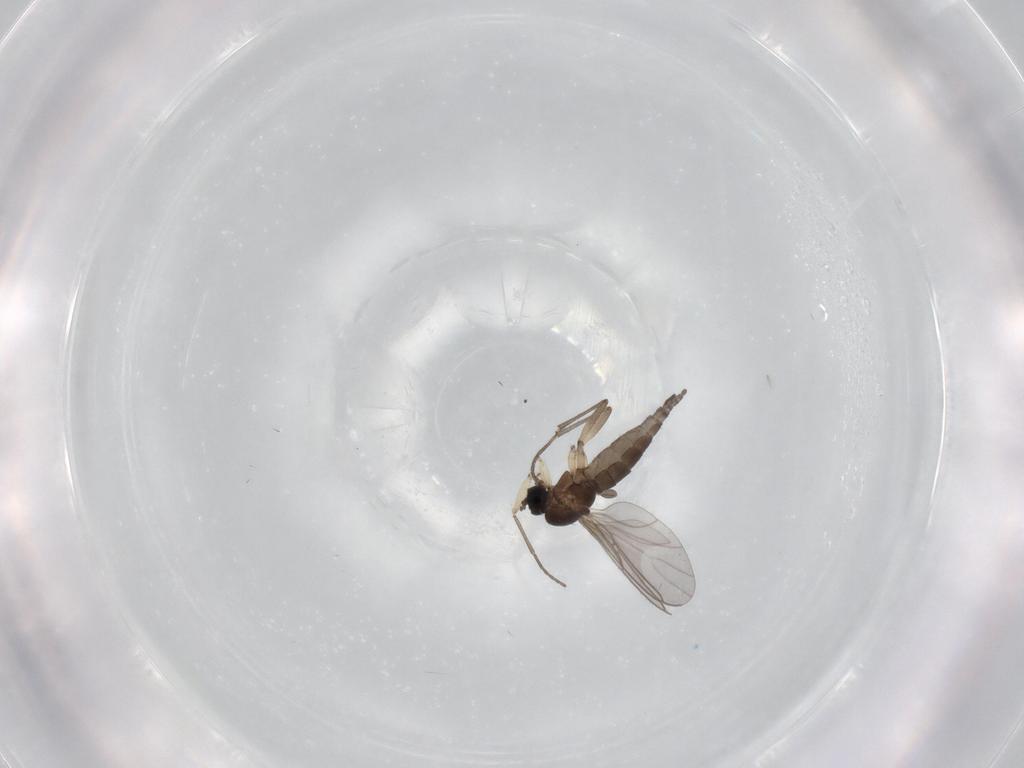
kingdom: Animalia
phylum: Arthropoda
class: Insecta
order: Diptera
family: Sciaridae
